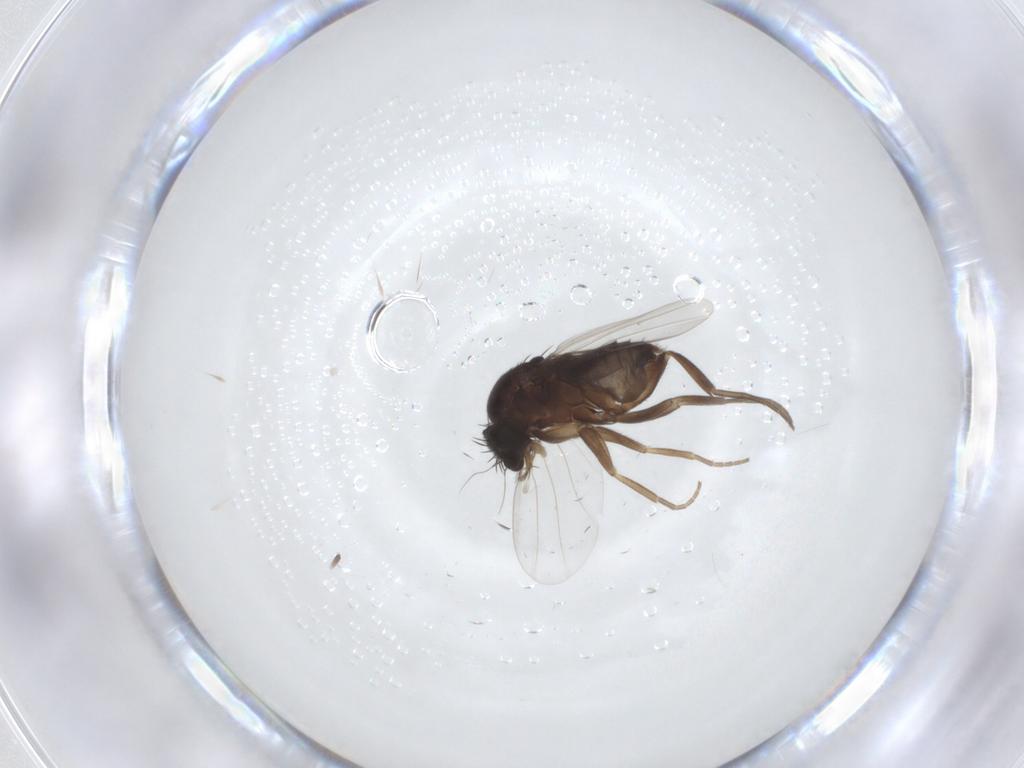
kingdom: Animalia
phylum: Arthropoda
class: Insecta
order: Diptera
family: Phoridae
